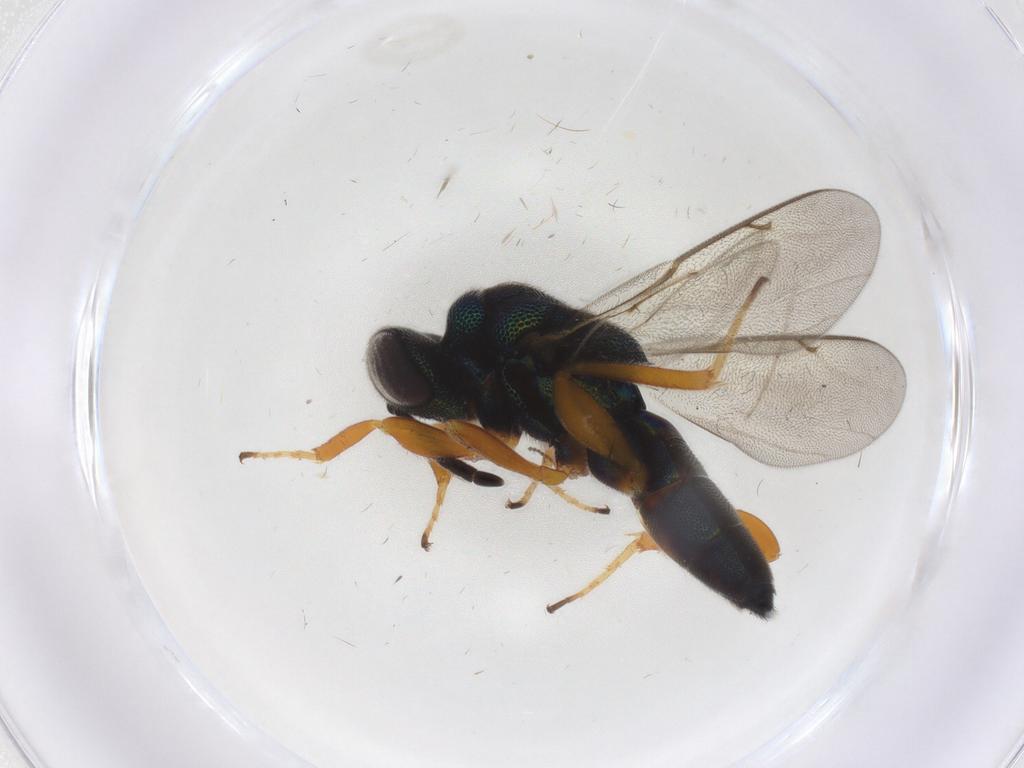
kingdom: Animalia
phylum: Arthropoda
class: Insecta
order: Hymenoptera
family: Lyciscidae
